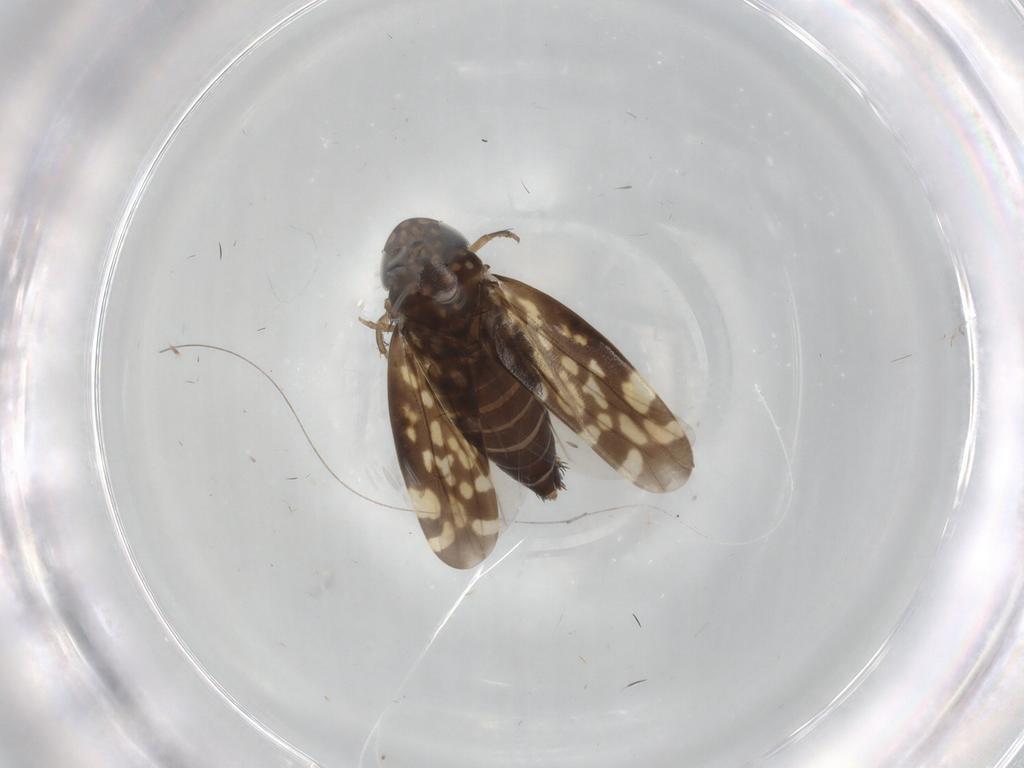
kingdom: Animalia
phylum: Arthropoda
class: Insecta
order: Hemiptera
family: Cicadellidae
